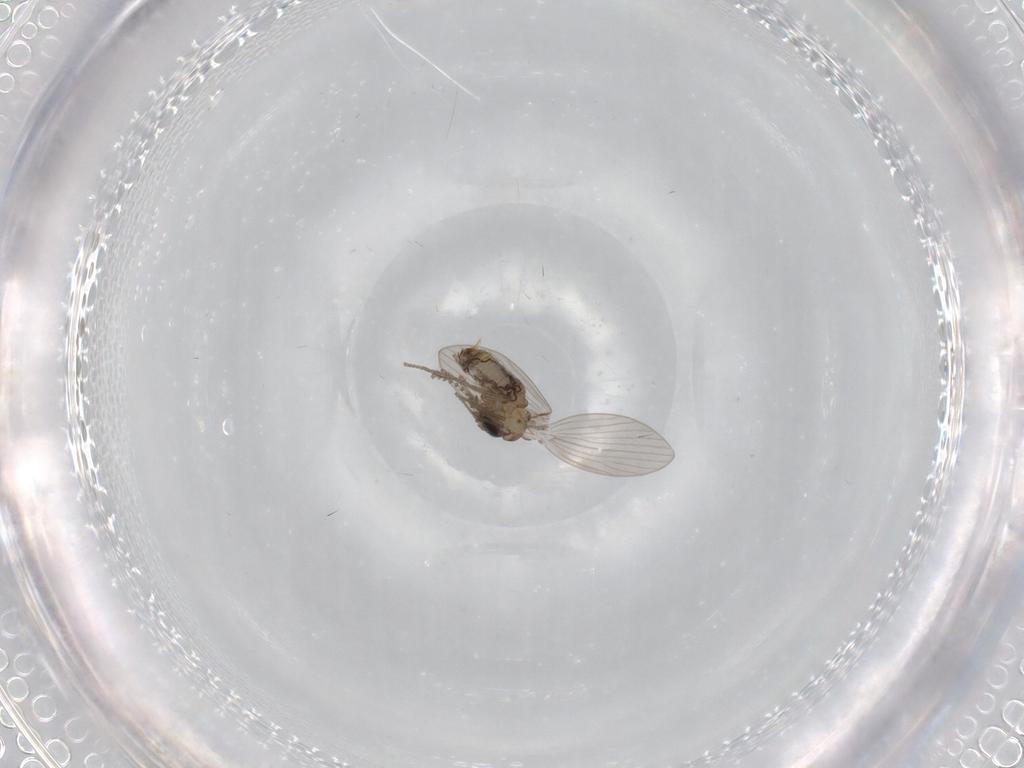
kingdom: Animalia
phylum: Arthropoda
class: Insecta
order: Diptera
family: Psychodidae
